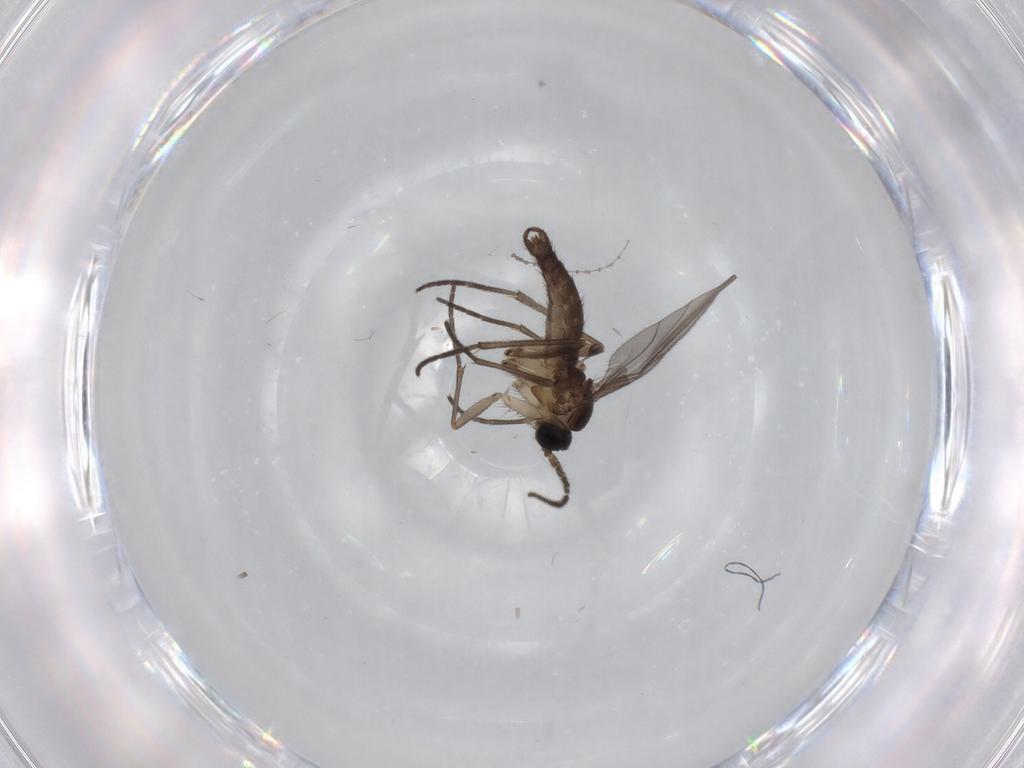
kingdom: Animalia
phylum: Arthropoda
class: Insecta
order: Diptera
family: Sciaridae
